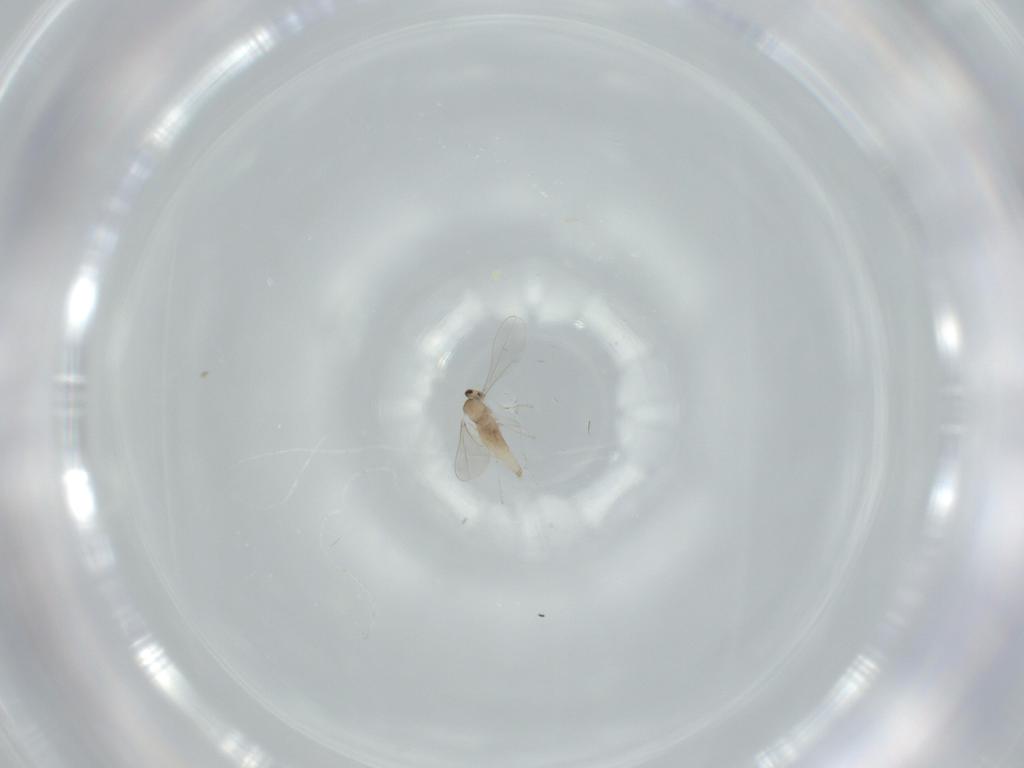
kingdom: Animalia
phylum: Arthropoda
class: Insecta
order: Diptera
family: Cecidomyiidae
